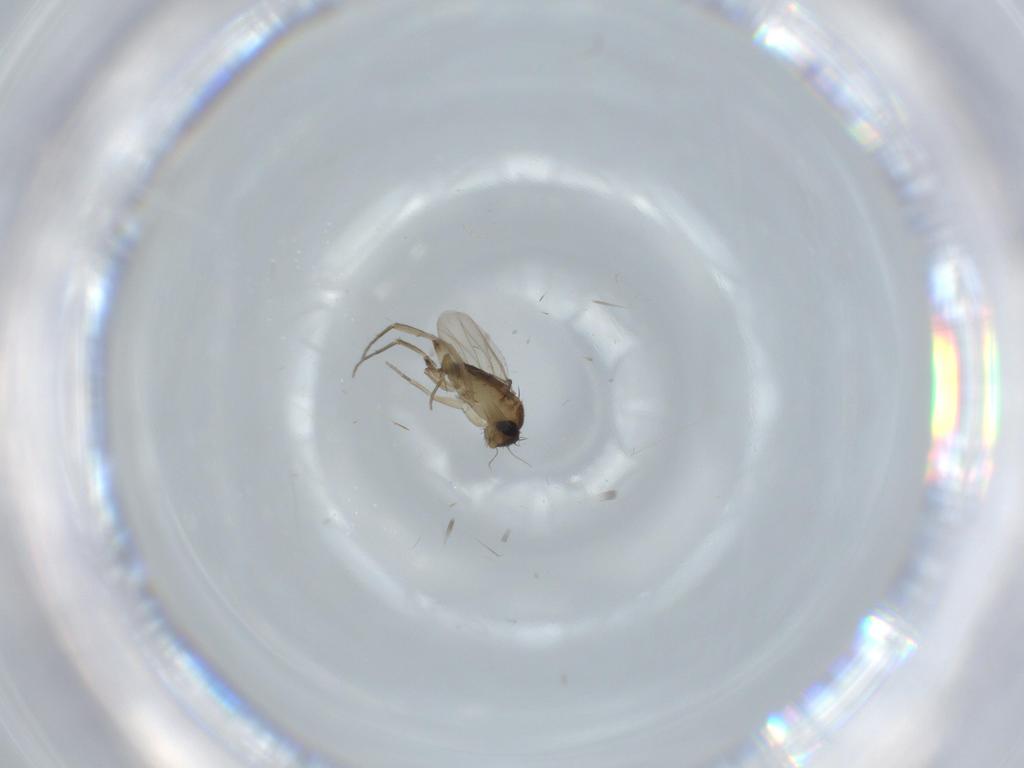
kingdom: Animalia
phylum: Arthropoda
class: Insecta
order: Diptera
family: Phoridae
